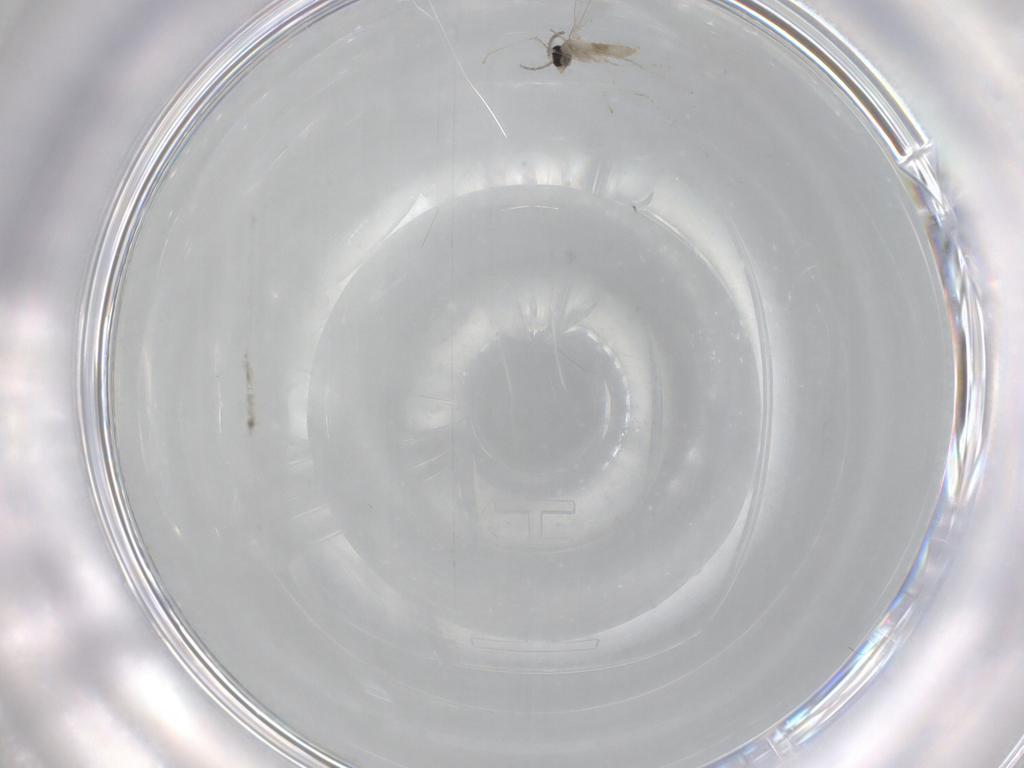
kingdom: Animalia
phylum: Arthropoda
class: Insecta
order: Diptera
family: Cecidomyiidae
